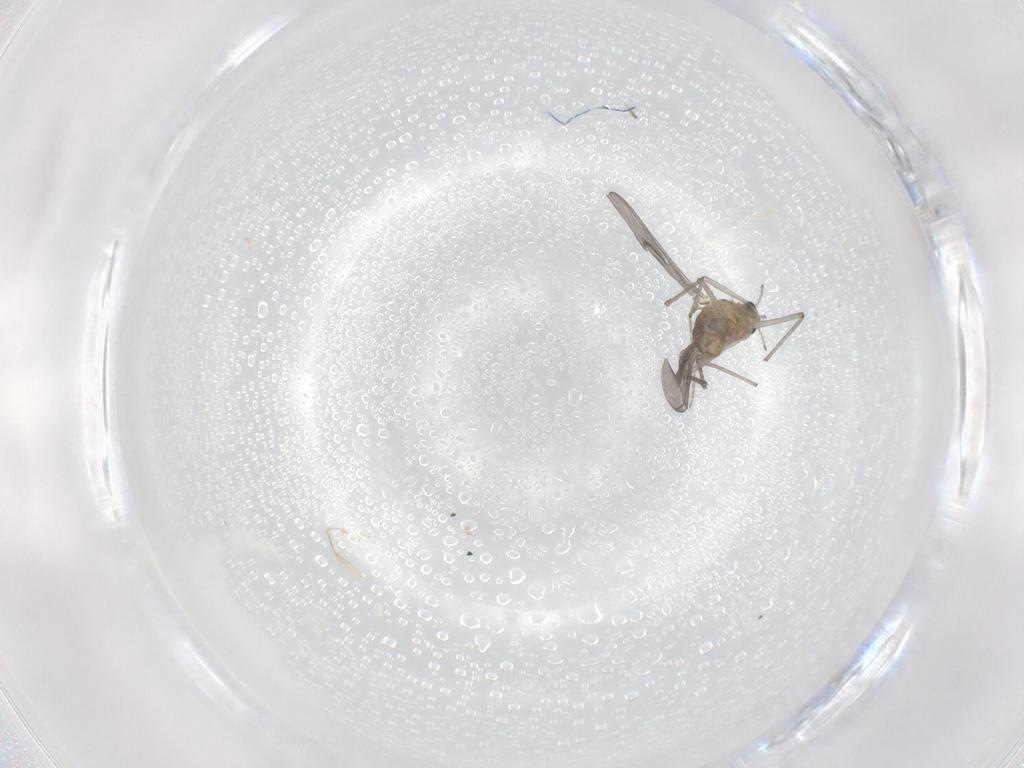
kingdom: Animalia
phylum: Arthropoda
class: Insecta
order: Diptera
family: Chironomidae
